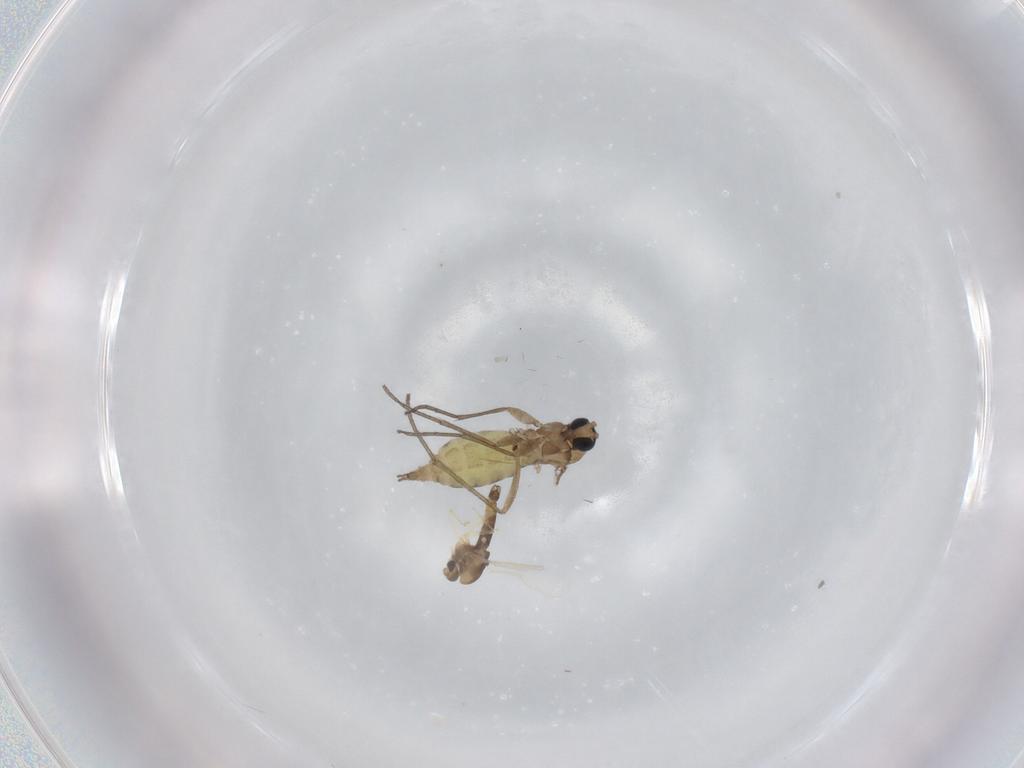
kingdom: Animalia
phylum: Arthropoda
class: Insecta
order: Diptera
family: Sciaridae
